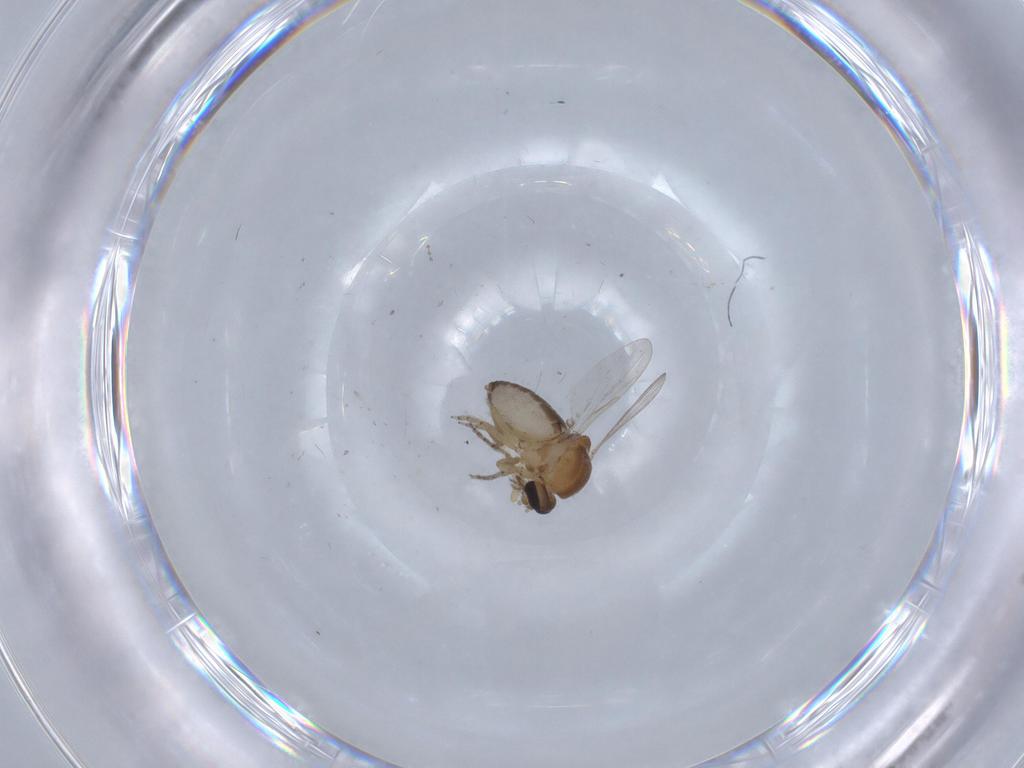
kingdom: Animalia
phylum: Arthropoda
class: Insecta
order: Diptera
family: Ceratopogonidae
